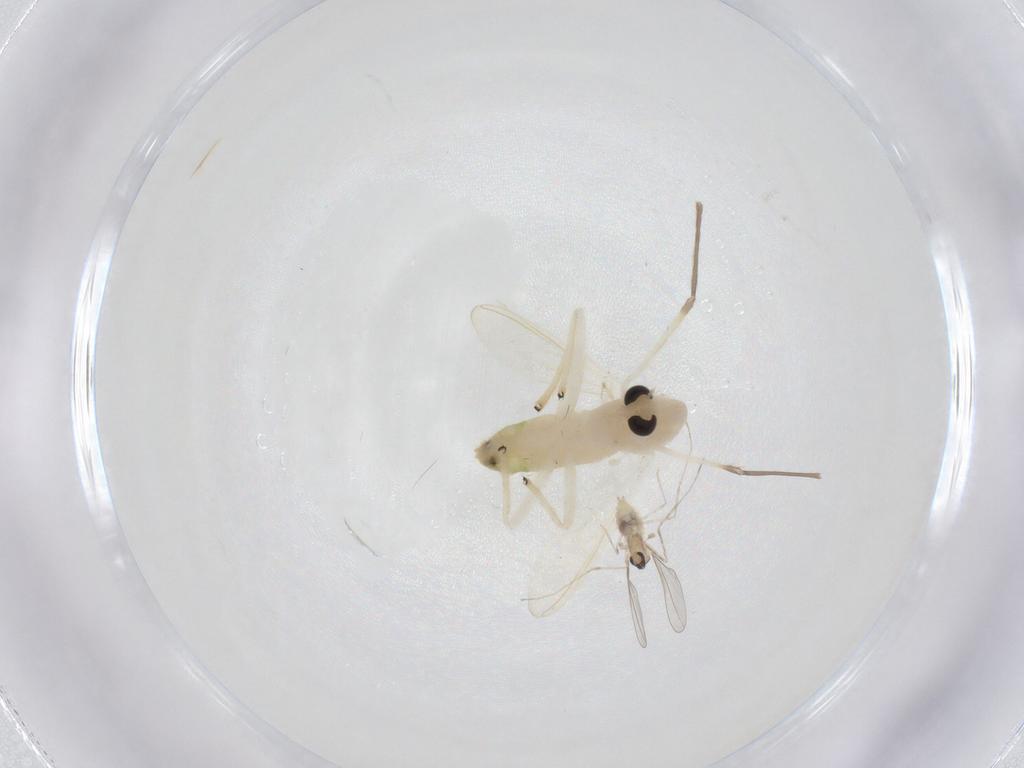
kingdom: Animalia
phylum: Arthropoda
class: Insecta
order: Diptera
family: Chironomidae
